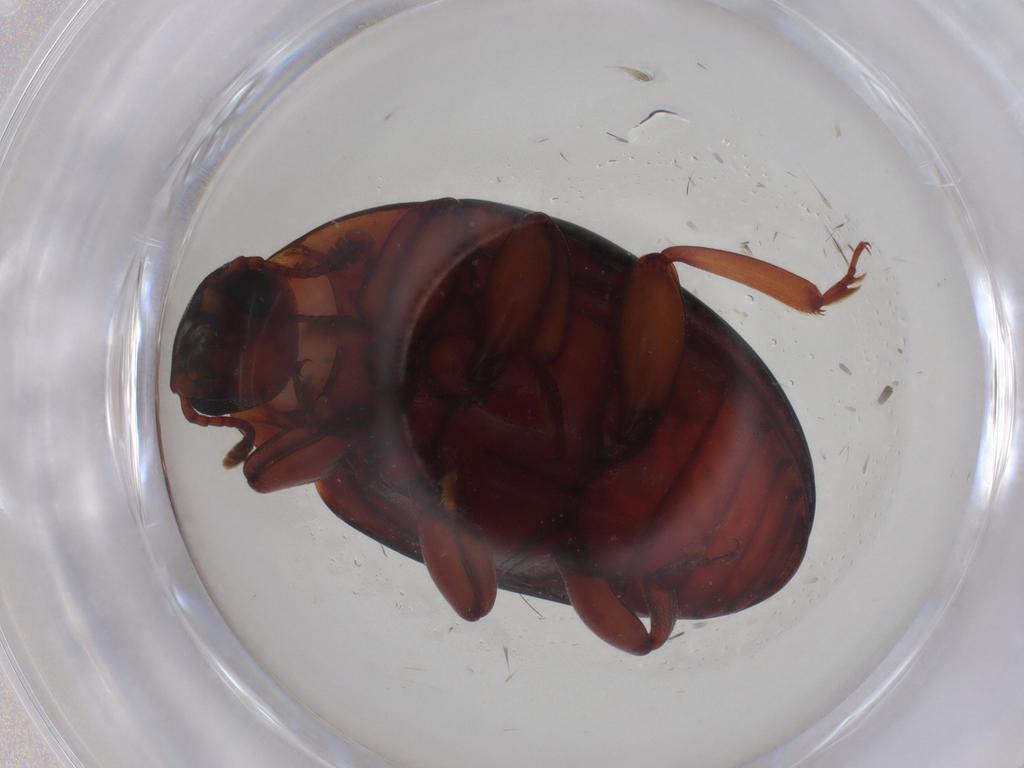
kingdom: Animalia
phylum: Arthropoda
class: Insecta
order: Coleoptera
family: Zopheridae
